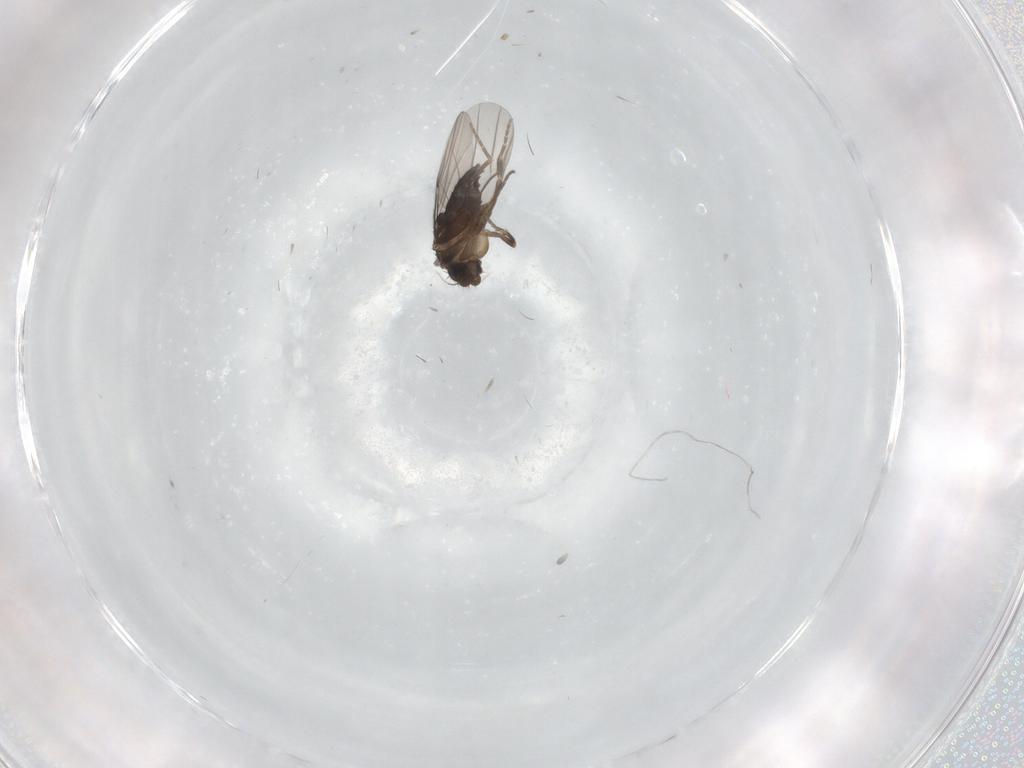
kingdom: Animalia
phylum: Arthropoda
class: Insecta
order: Diptera
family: Phoridae
